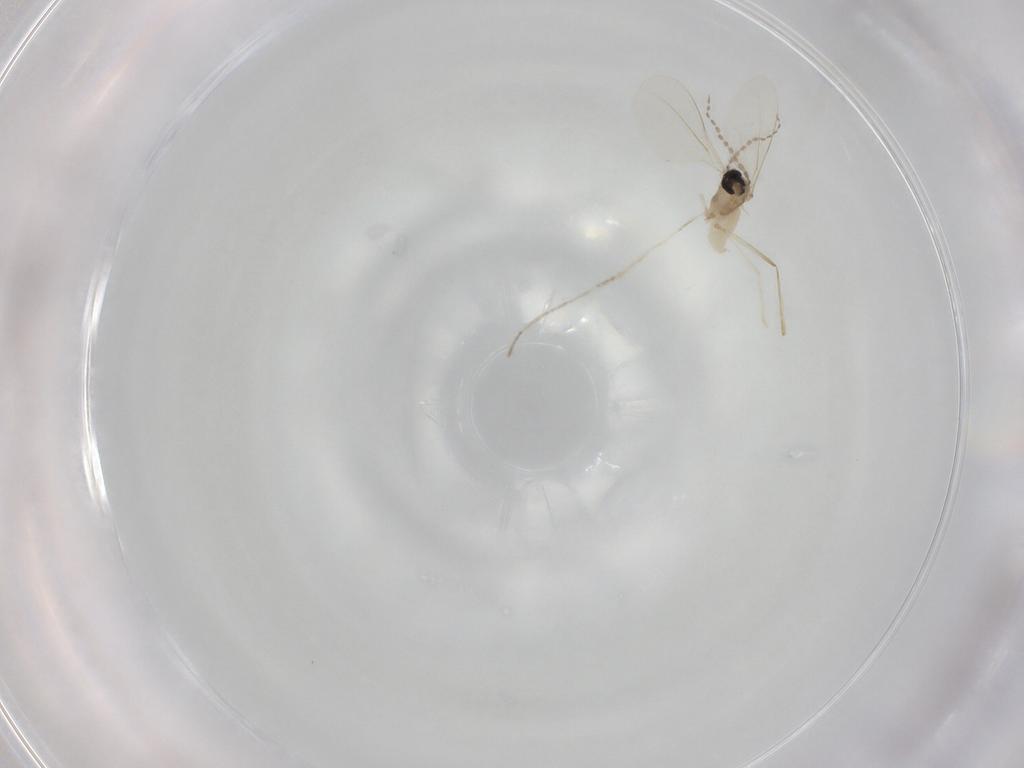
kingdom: Animalia
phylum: Arthropoda
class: Insecta
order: Diptera
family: Cecidomyiidae
